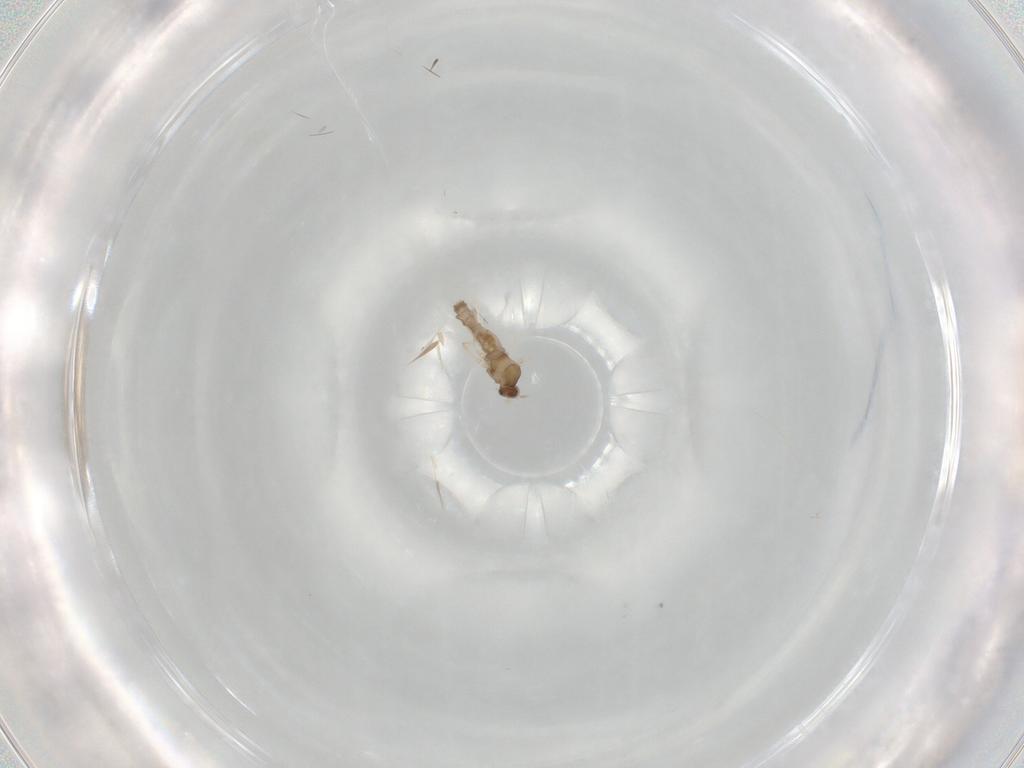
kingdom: Animalia
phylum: Arthropoda
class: Insecta
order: Diptera
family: Cecidomyiidae
